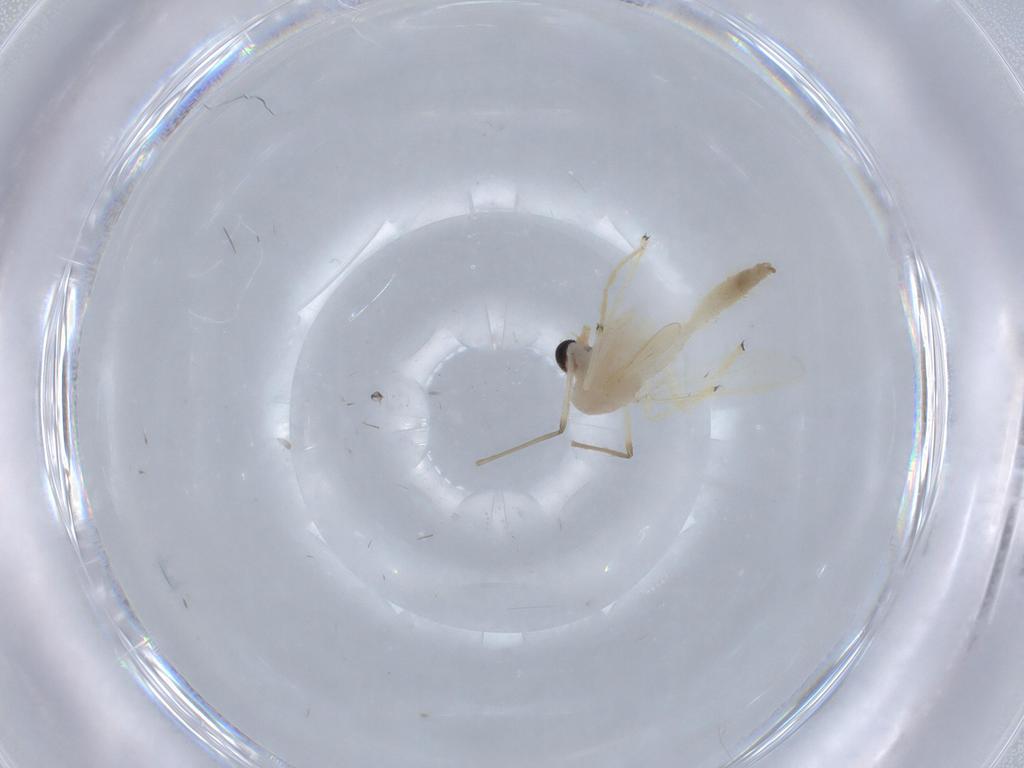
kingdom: Animalia
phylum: Arthropoda
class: Insecta
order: Diptera
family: Chironomidae
